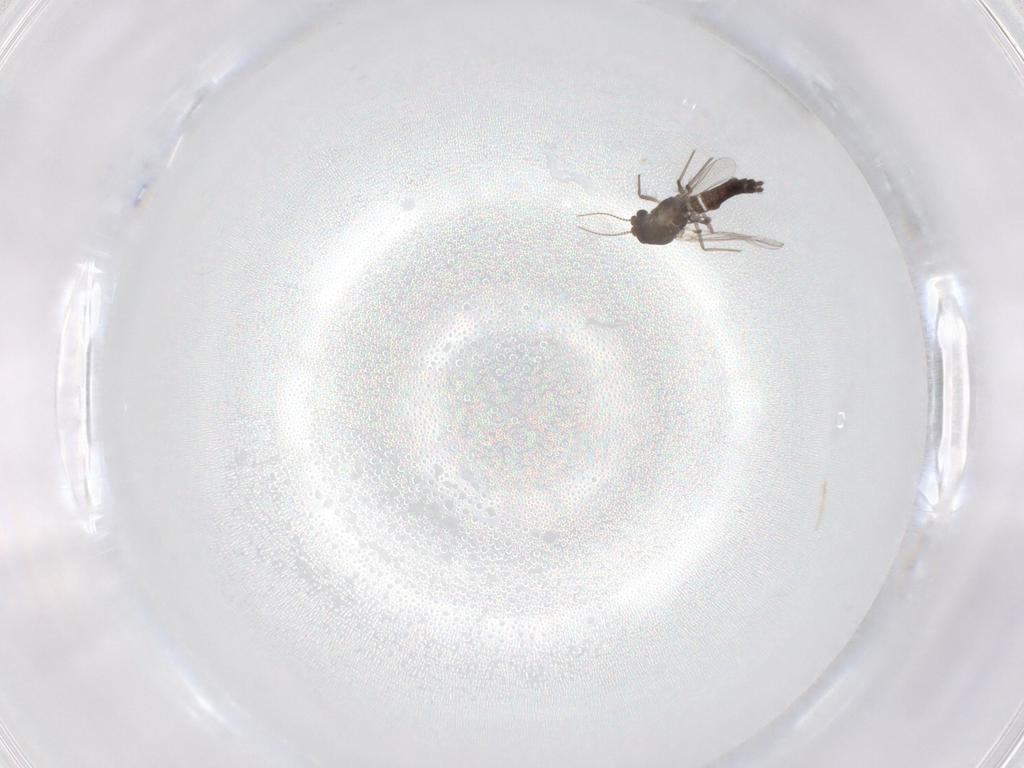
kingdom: Animalia
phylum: Arthropoda
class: Insecta
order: Diptera
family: Chironomidae
